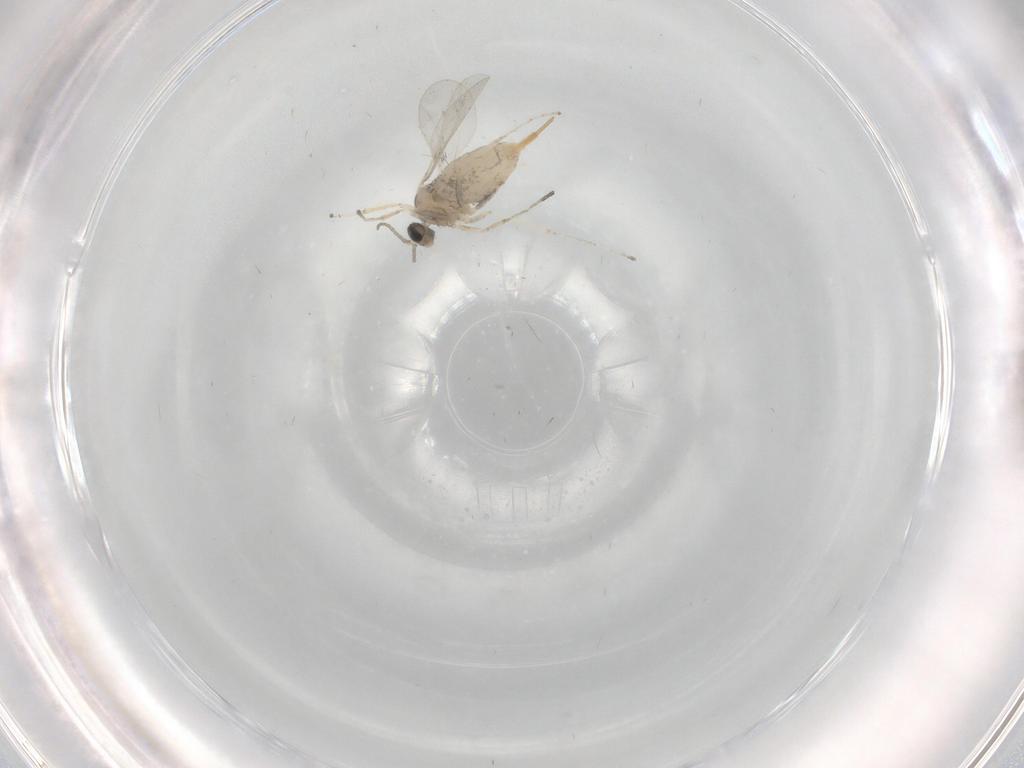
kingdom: Animalia
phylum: Arthropoda
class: Insecta
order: Diptera
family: Cecidomyiidae
